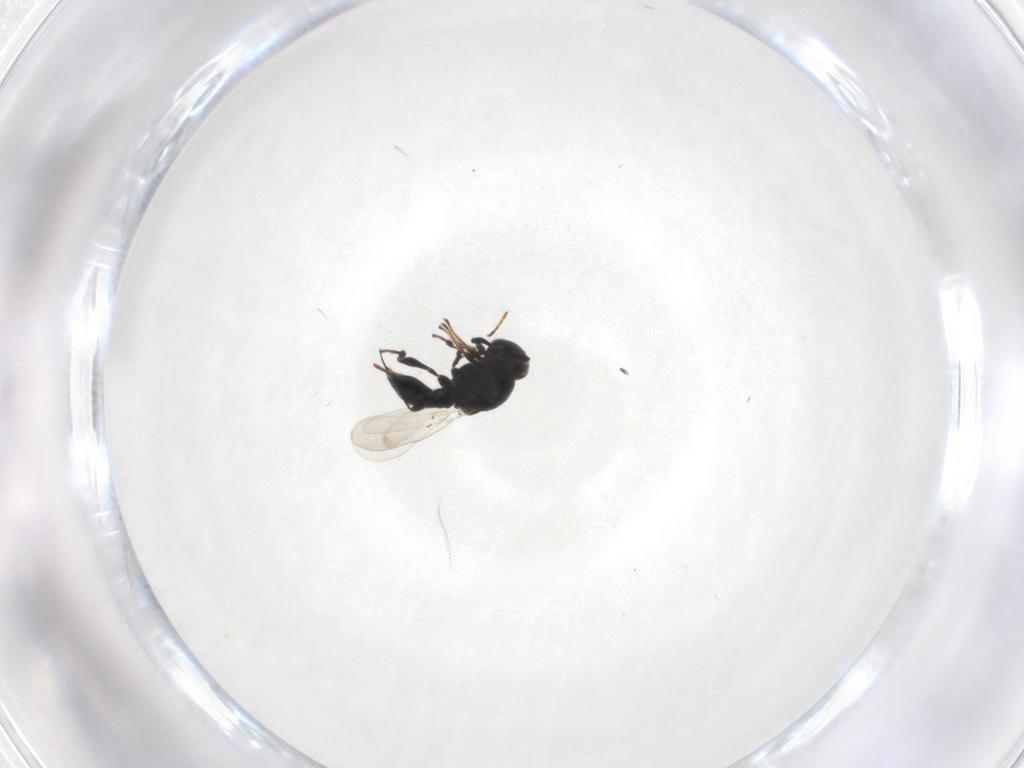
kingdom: Animalia
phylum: Arthropoda
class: Insecta
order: Hymenoptera
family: Platygastridae
